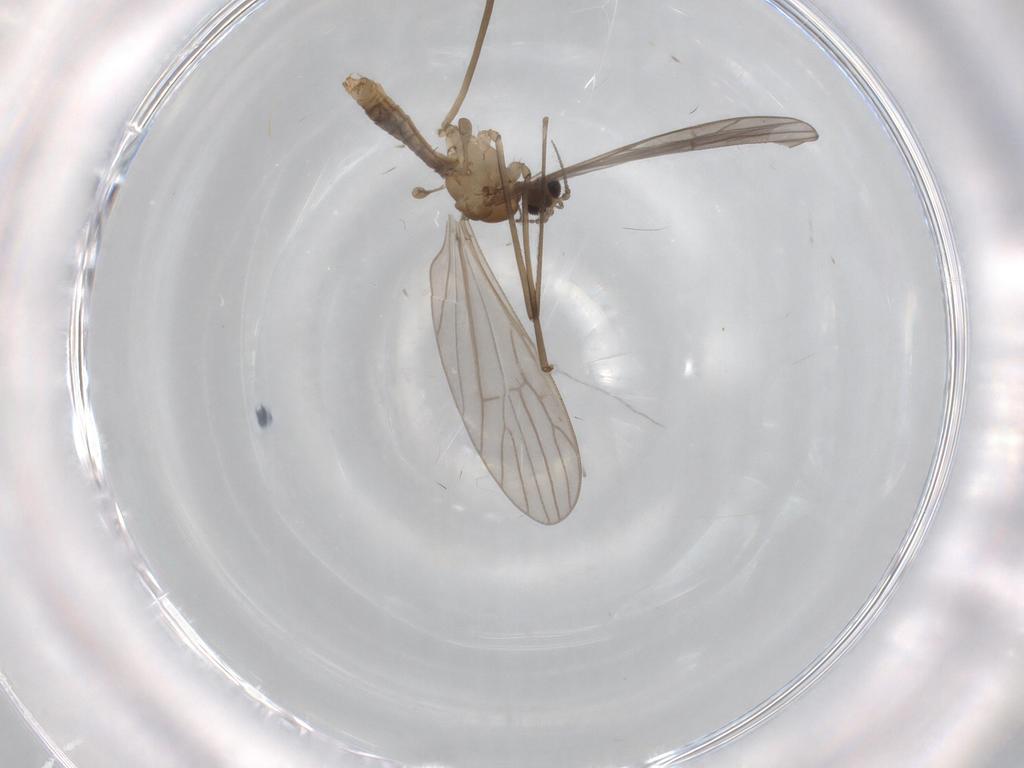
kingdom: Animalia
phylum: Arthropoda
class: Insecta
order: Diptera
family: Limoniidae
